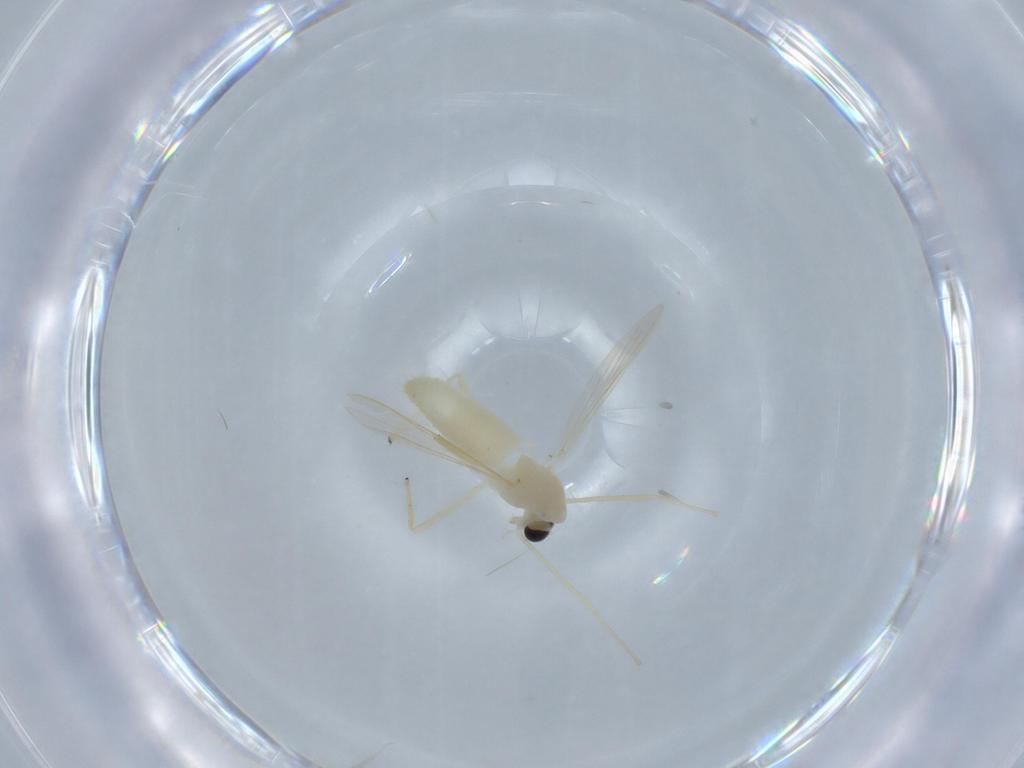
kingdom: Animalia
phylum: Arthropoda
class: Insecta
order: Diptera
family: Chironomidae
